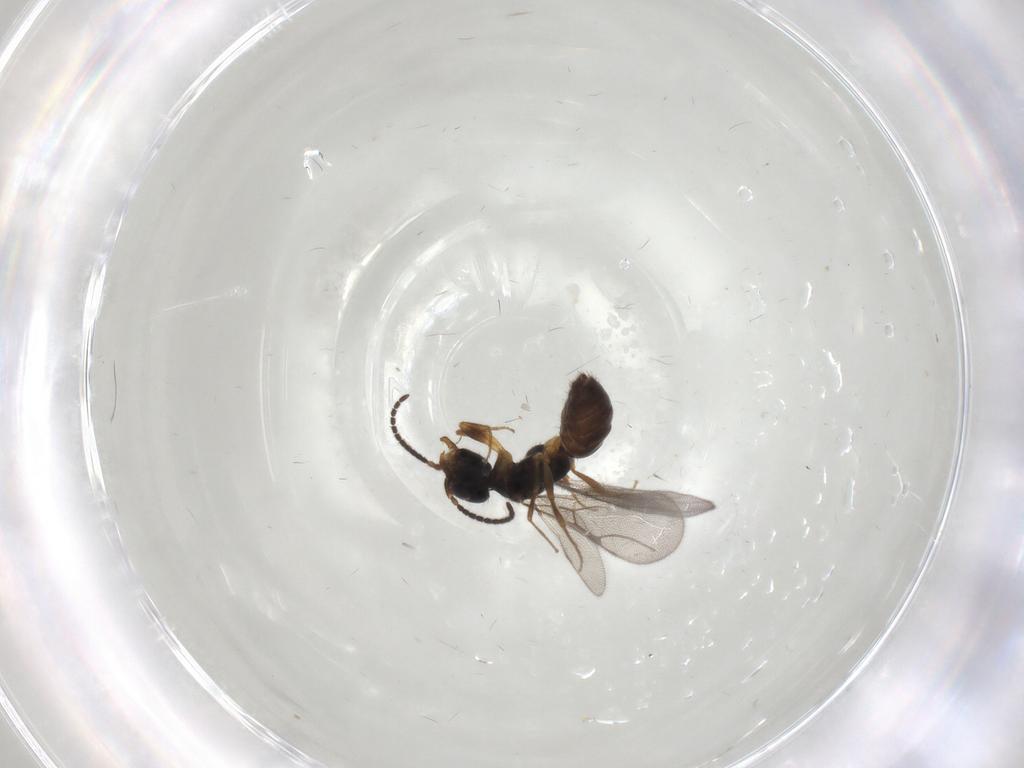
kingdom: Animalia
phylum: Arthropoda
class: Insecta
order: Hymenoptera
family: Bethylidae
